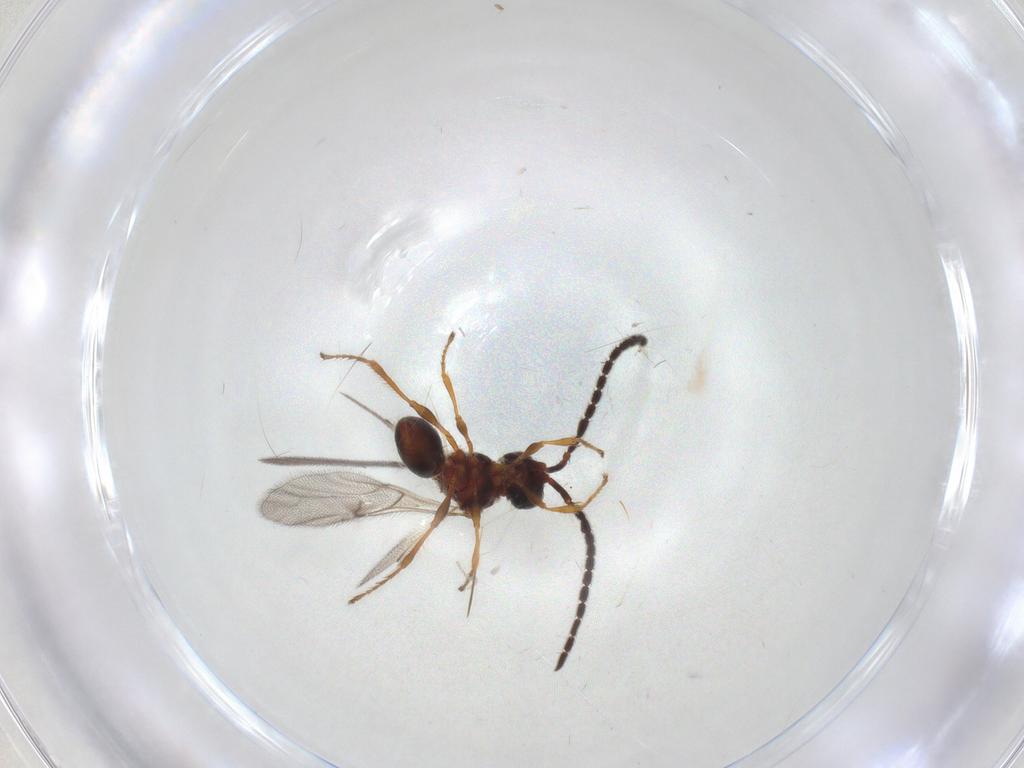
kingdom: Animalia
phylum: Arthropoda
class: Insecta
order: Hymenoptera
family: Diapriidae
